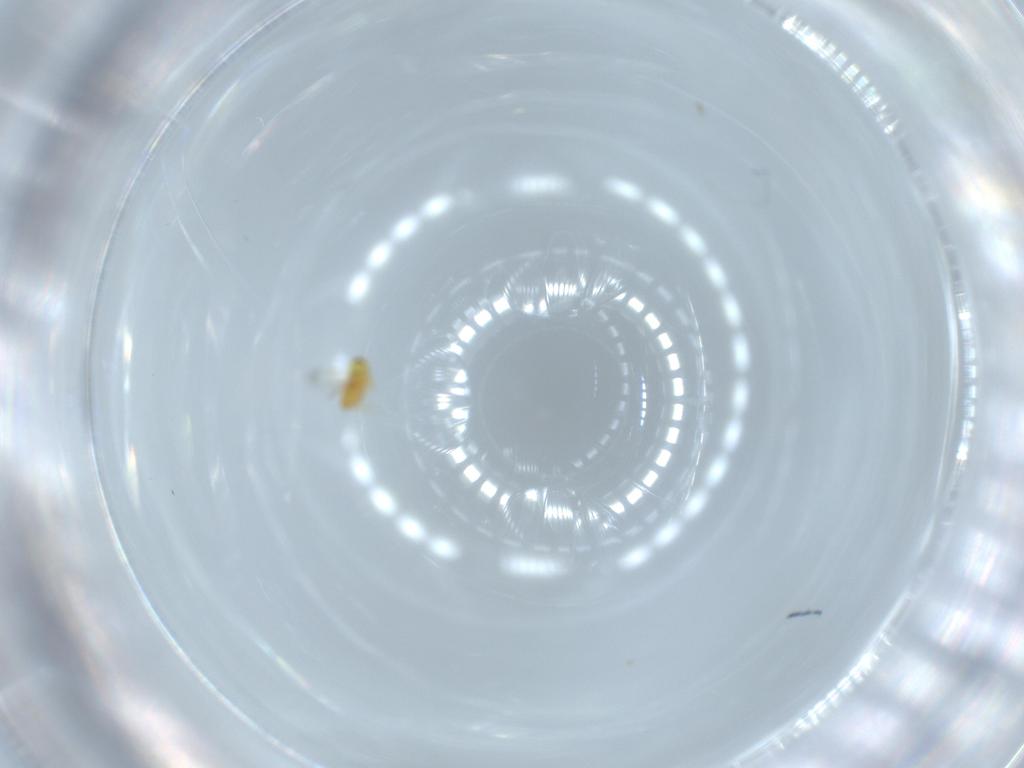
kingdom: Animalia
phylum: Arthropoda
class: Insecta
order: Hymenoptera
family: Signiphoridae
